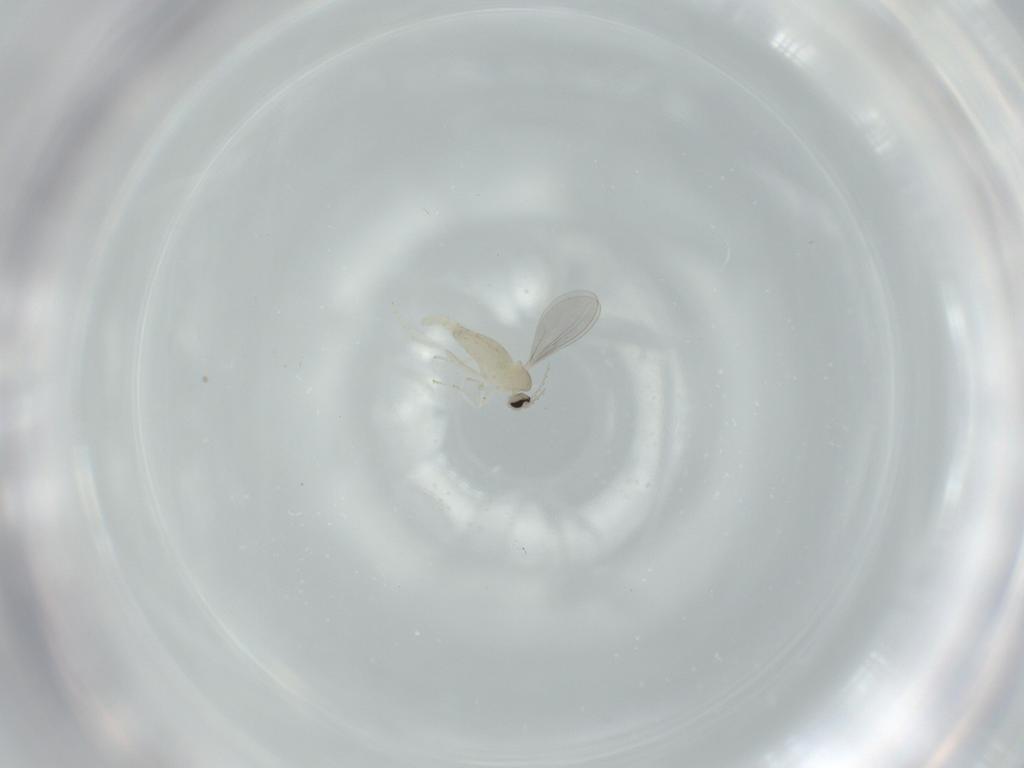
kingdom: Animalia
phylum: Arthropoda
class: Insecta
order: Diptera
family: Cecidomyiidae
